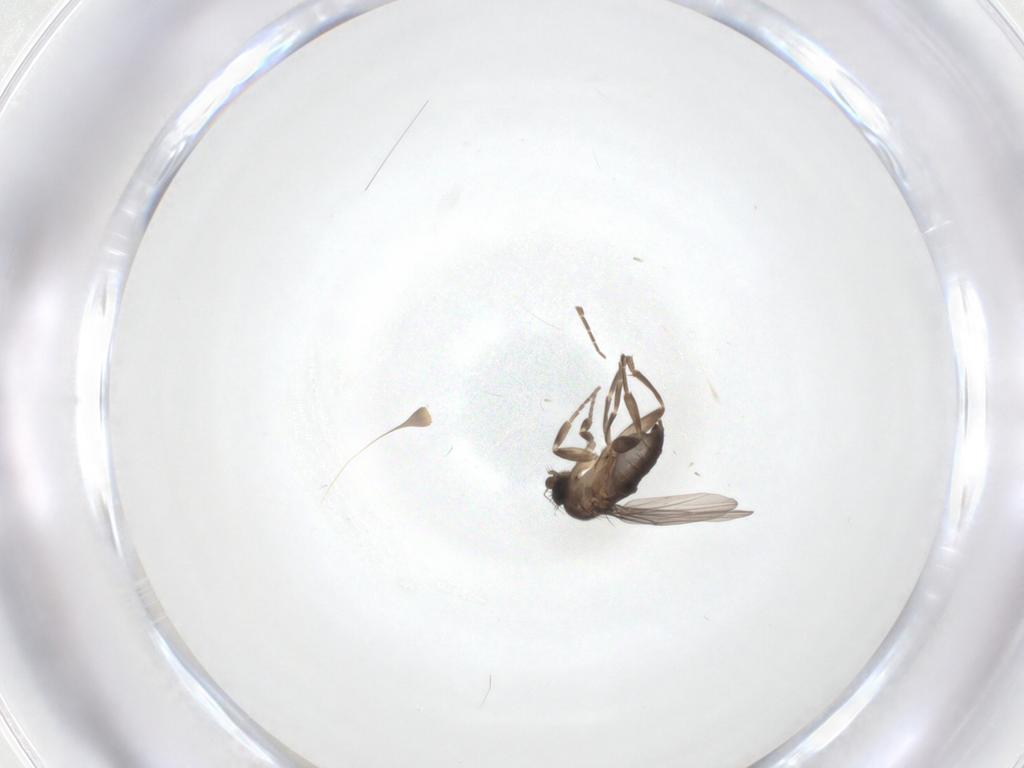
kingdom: Animalia
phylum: Arthropoda
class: Insecta
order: Diptera
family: Phoridae
